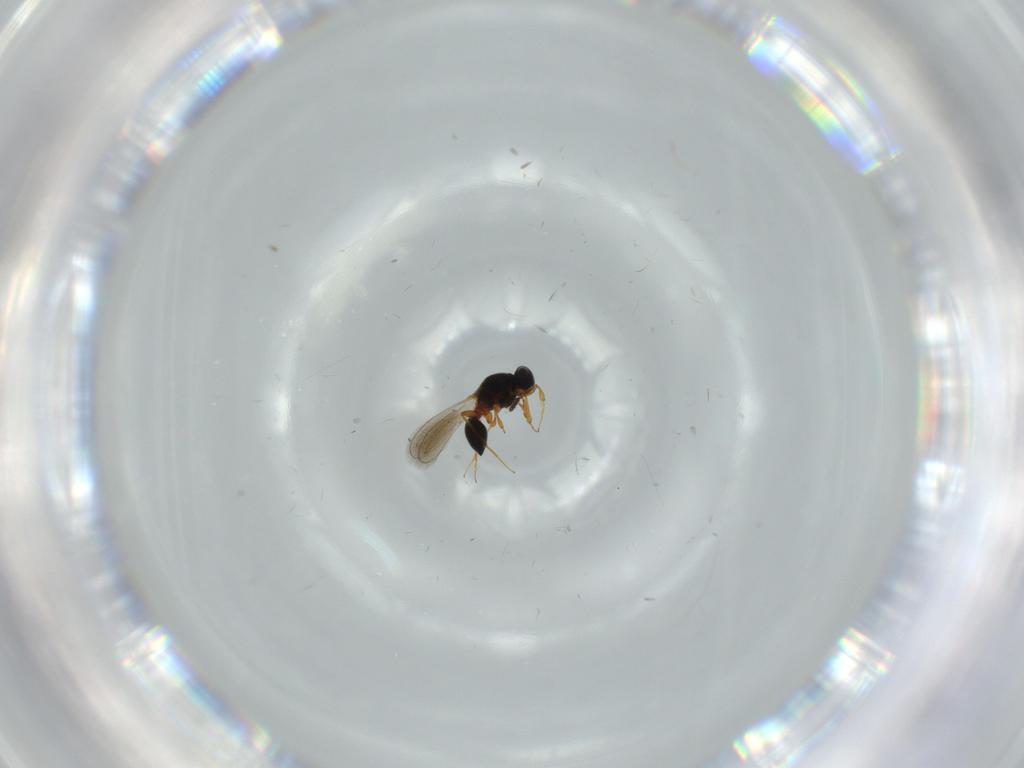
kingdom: Animalia
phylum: Arthropoda
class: Insecta
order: Hymenoptera
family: Platygastridae
